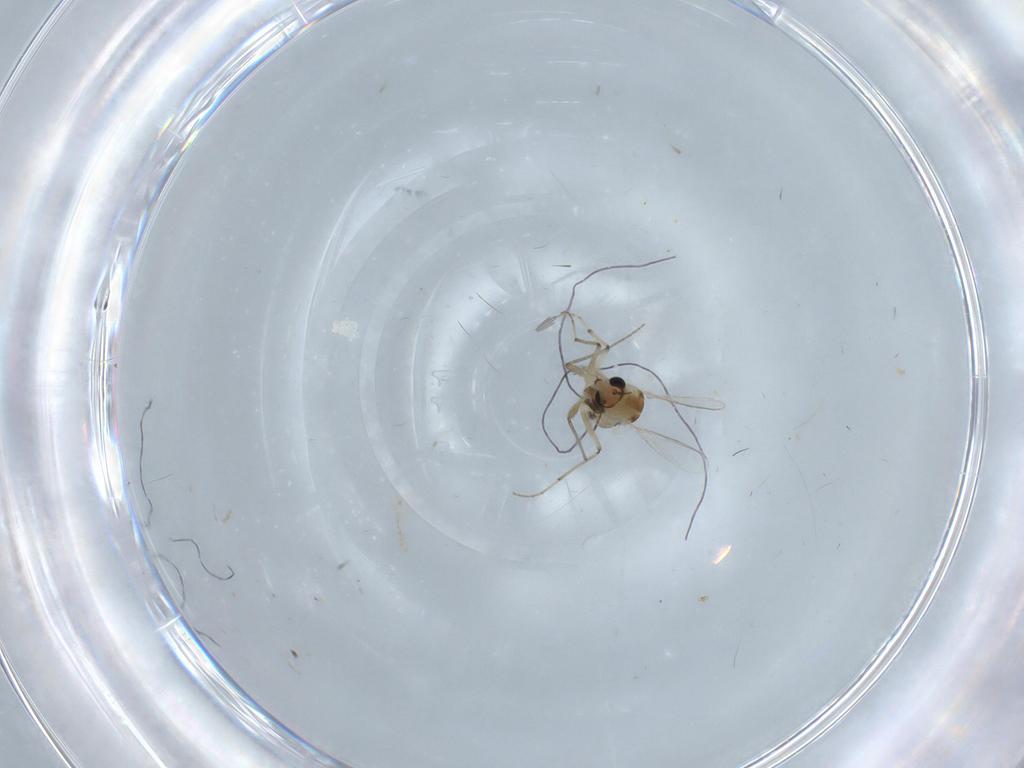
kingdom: Animalia
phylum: Arthropoda
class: Insecta
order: Diptera
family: Chironomidae
